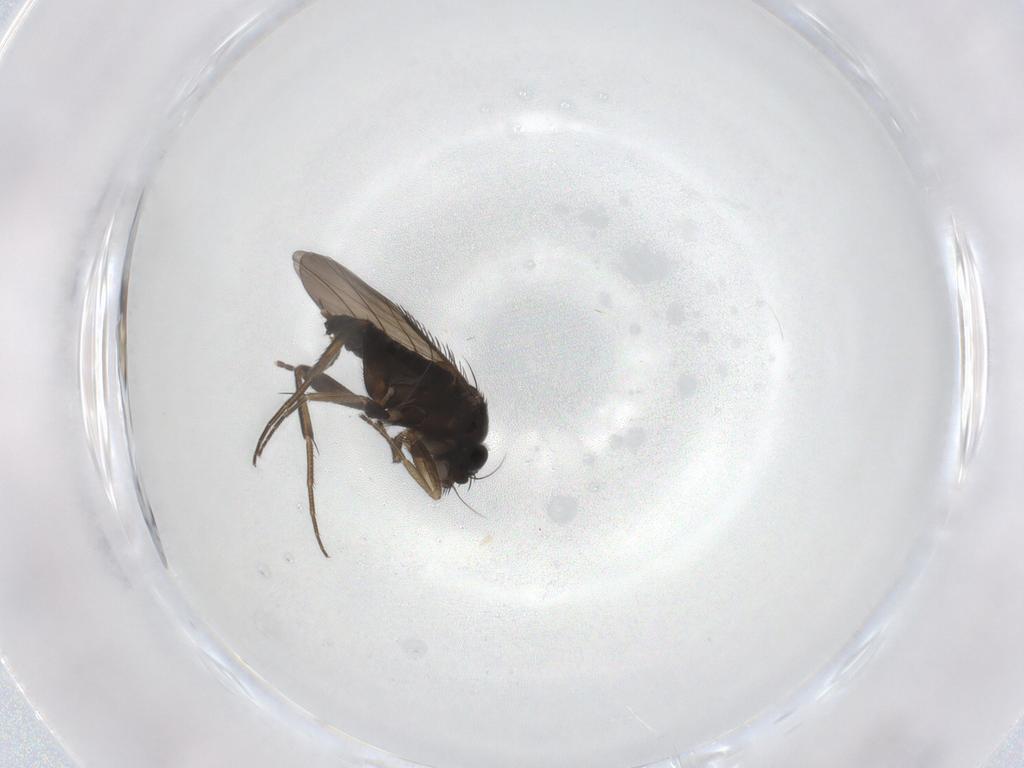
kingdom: Animalia
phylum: Arthropoda
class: Insecta
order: Diptera
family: Phoridae
